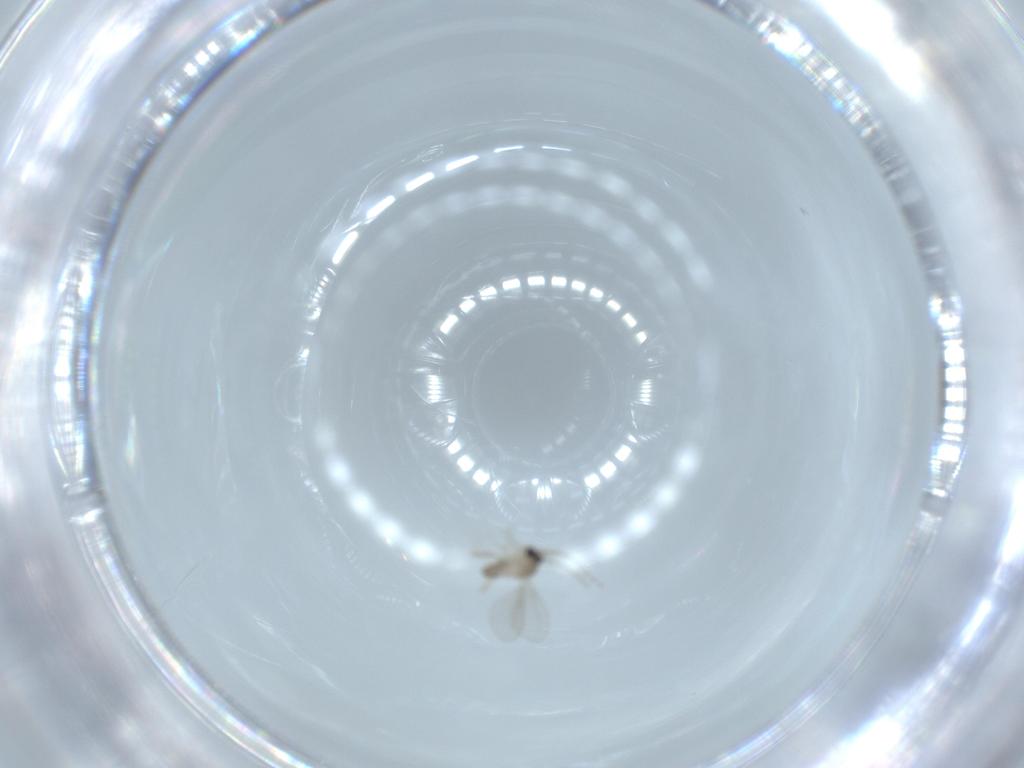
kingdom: Animalia
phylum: Arthropoda
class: Insecta
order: Diptera
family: Cecidomyiidae
